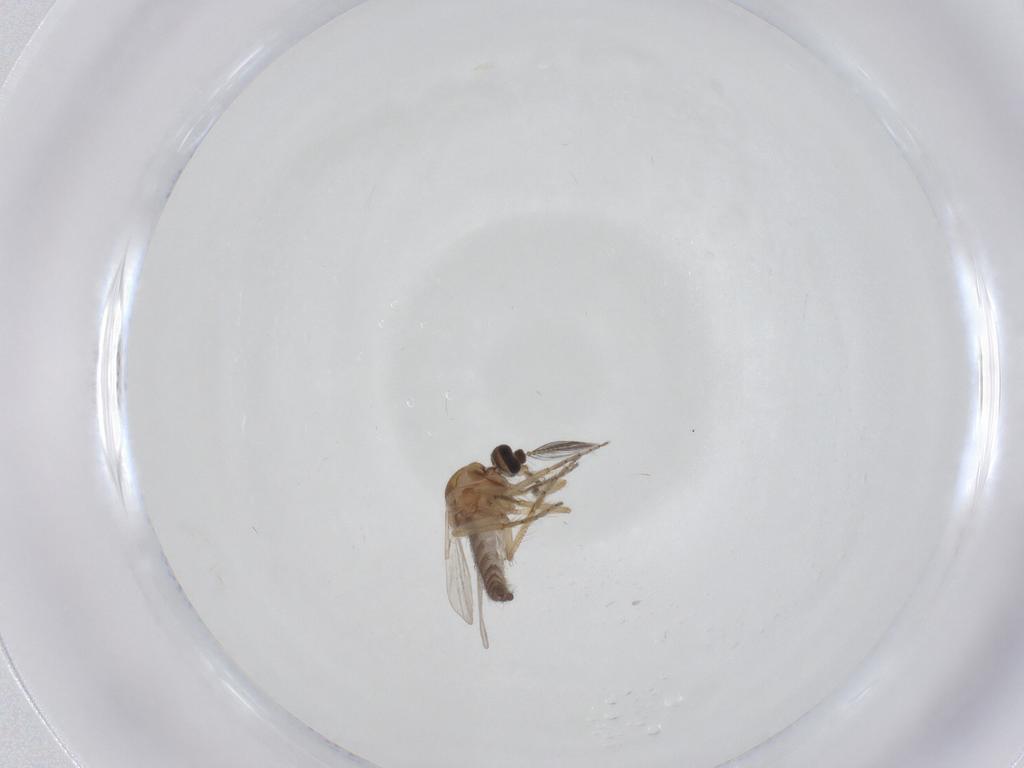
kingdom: Animalia
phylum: Arthropoda
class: Insecta
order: Diptera
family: Ceratopogonidae
